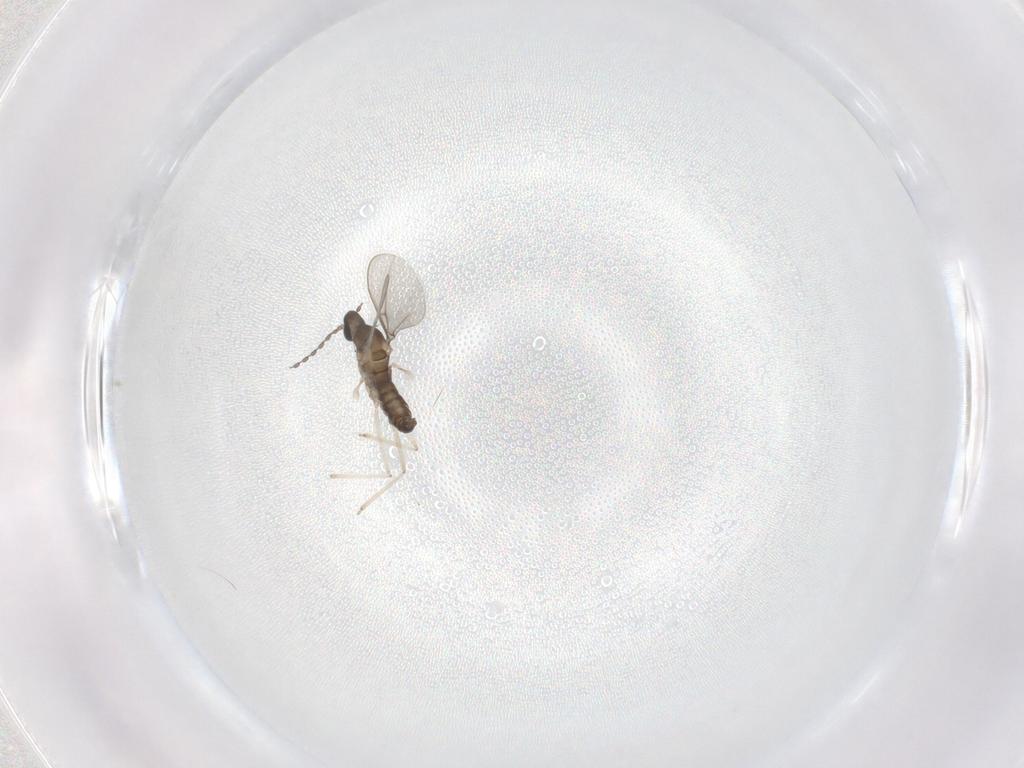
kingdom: Animalia
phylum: Arthropoda
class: Insecta
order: Diptera
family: Cecidomyiidae
